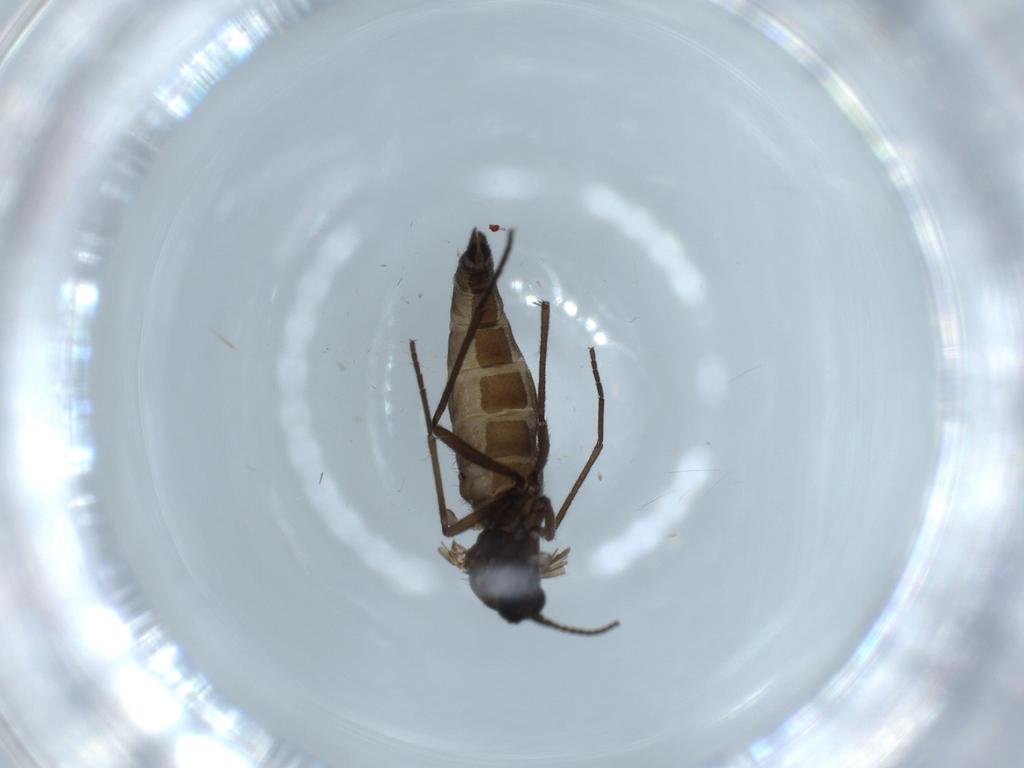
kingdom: Animalia
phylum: Arthropoda
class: Insecta
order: Diptera
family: Sciaridae
